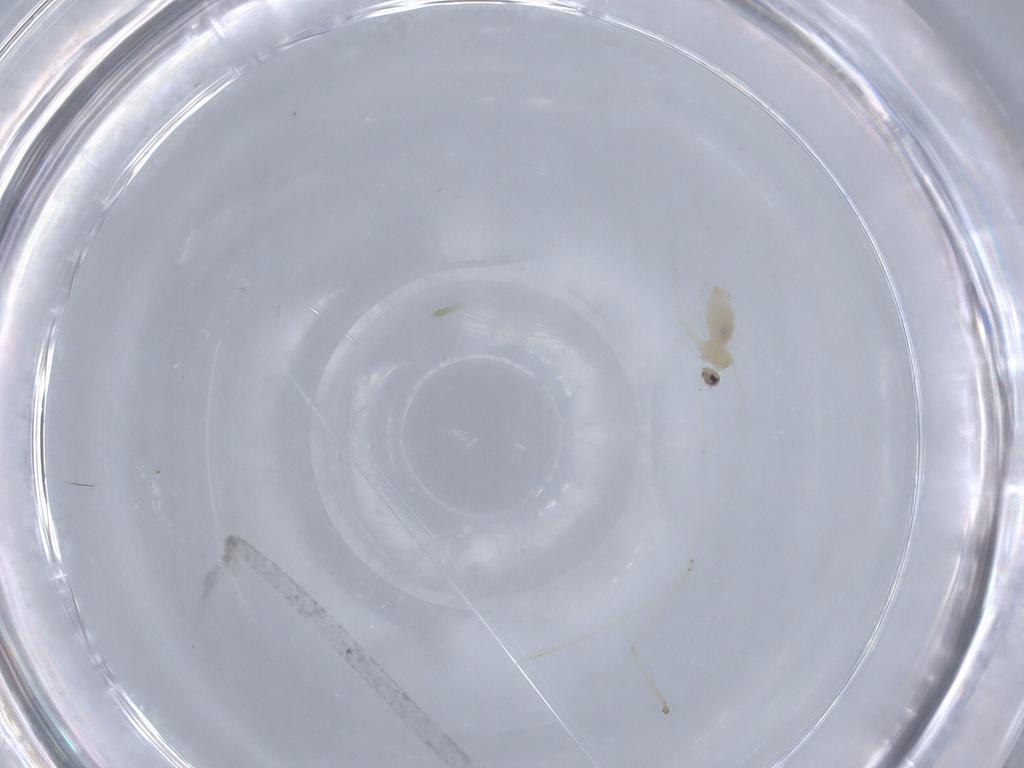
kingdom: Animalia
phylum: Arthropoda
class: Insecta
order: Diptera
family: Cecidomyiidae
